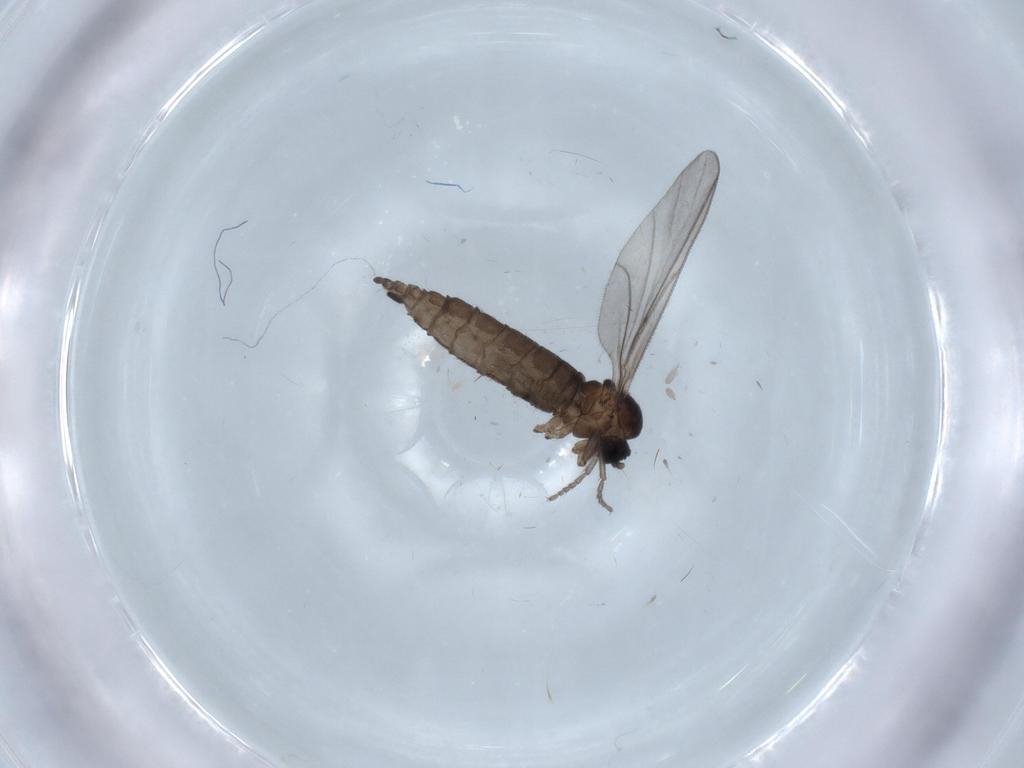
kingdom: Animalia
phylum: Arthropoda
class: Insecta
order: Diptera
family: Sciaridae
